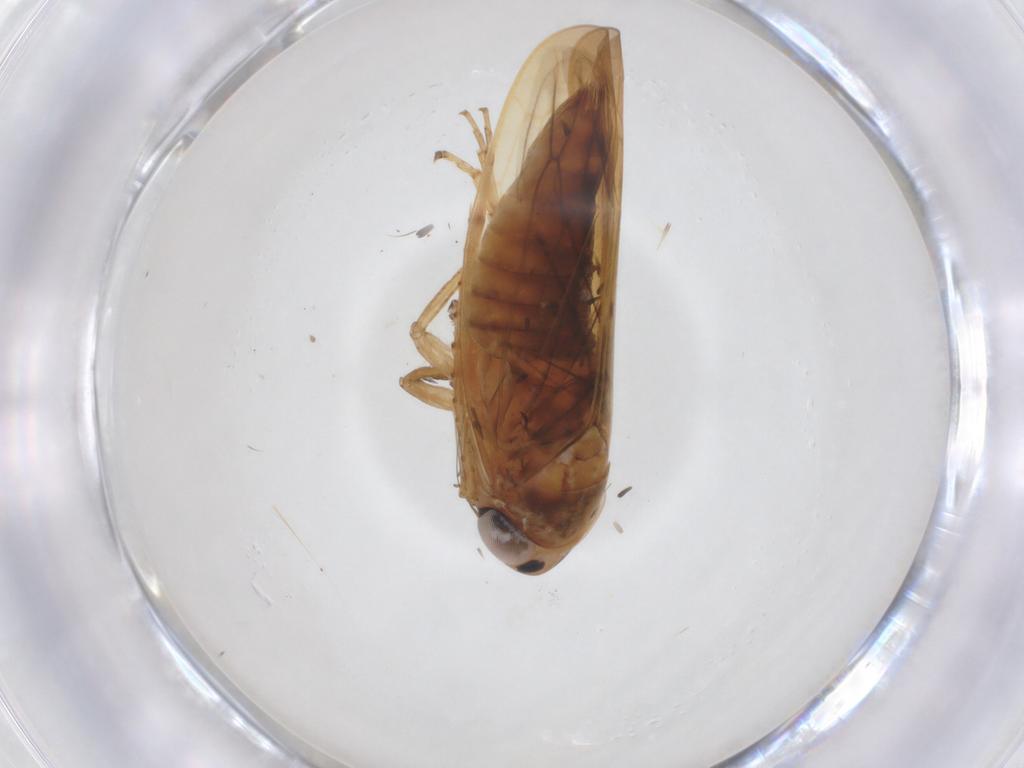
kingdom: Animalia
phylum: Arthropoda
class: Insecta
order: Hemiptera
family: Cicadellidae
